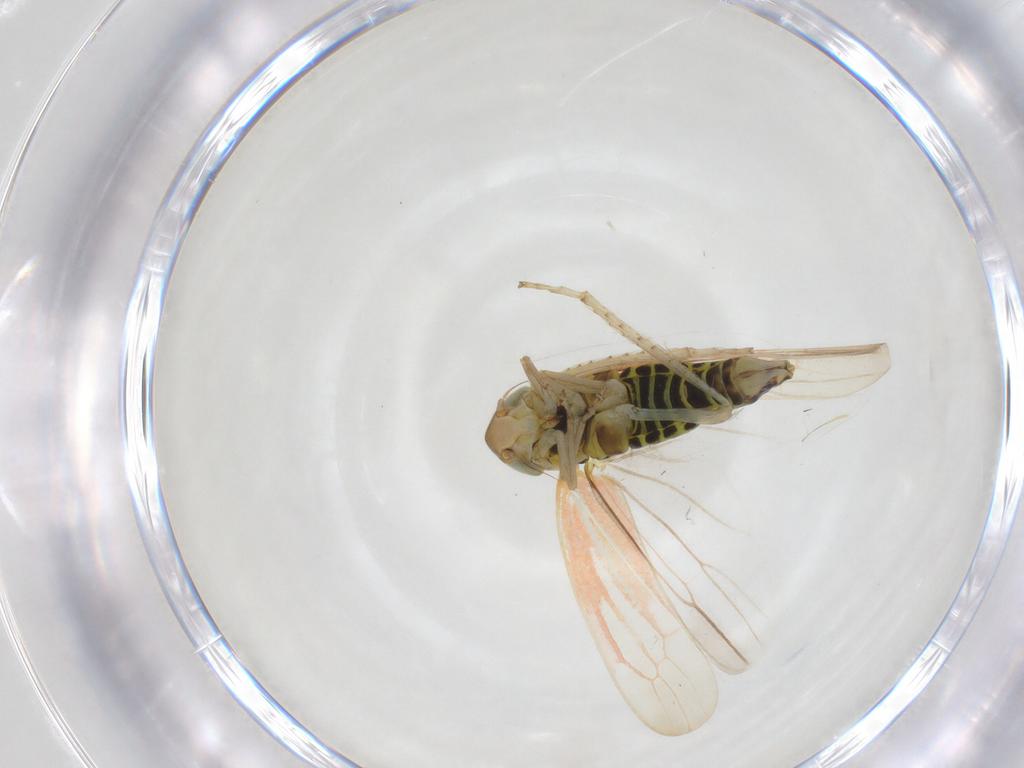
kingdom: Animalia
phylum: Arthropoda
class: Insecta
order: Hemiptera
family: Cicadellidae
